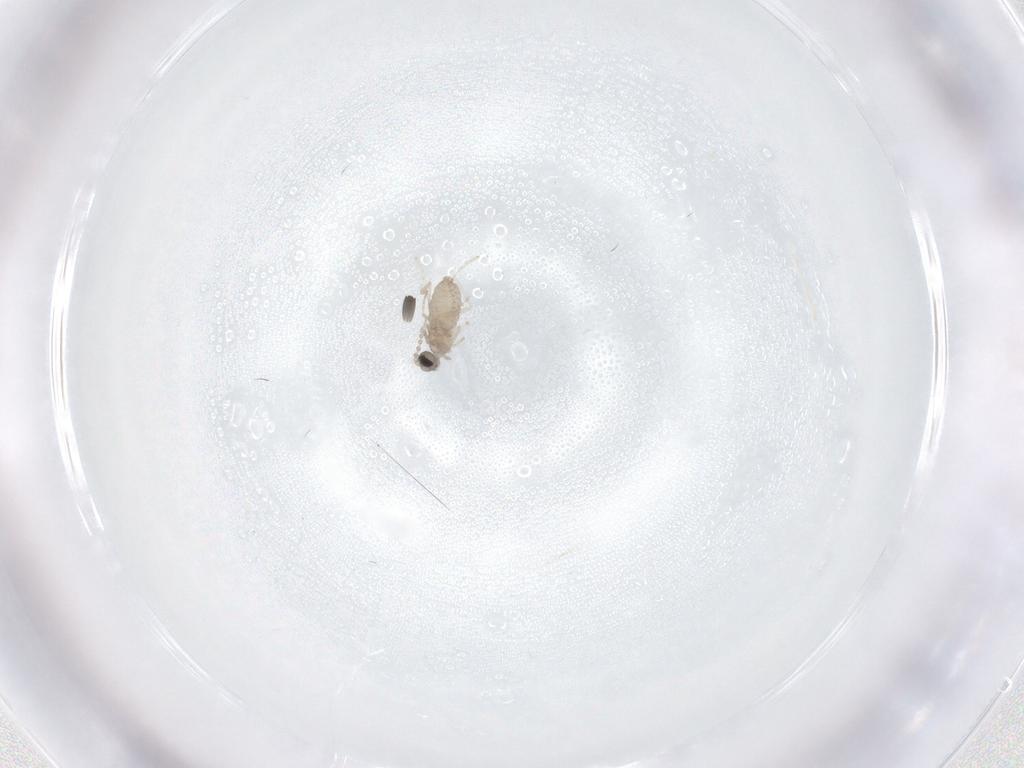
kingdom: Animalia
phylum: Arthropoda
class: Insecta
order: Diptera
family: Cecidomyiidae
